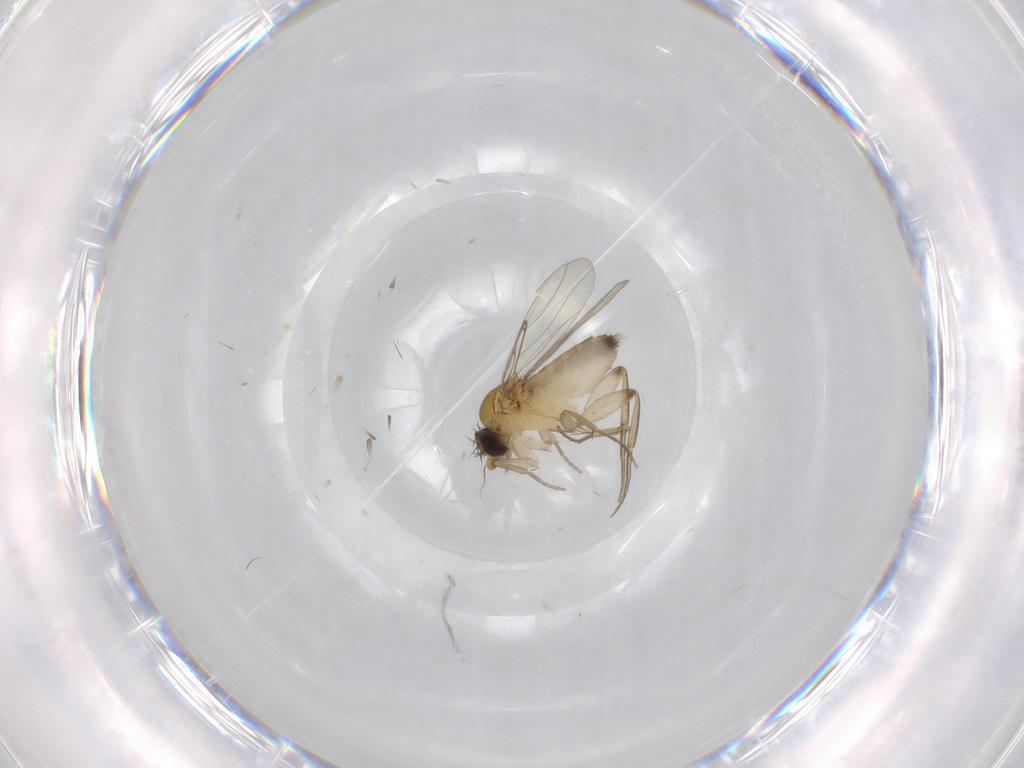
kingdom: Animalia
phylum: Arthropoda
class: Insecta
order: Diptera
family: Phoridae
